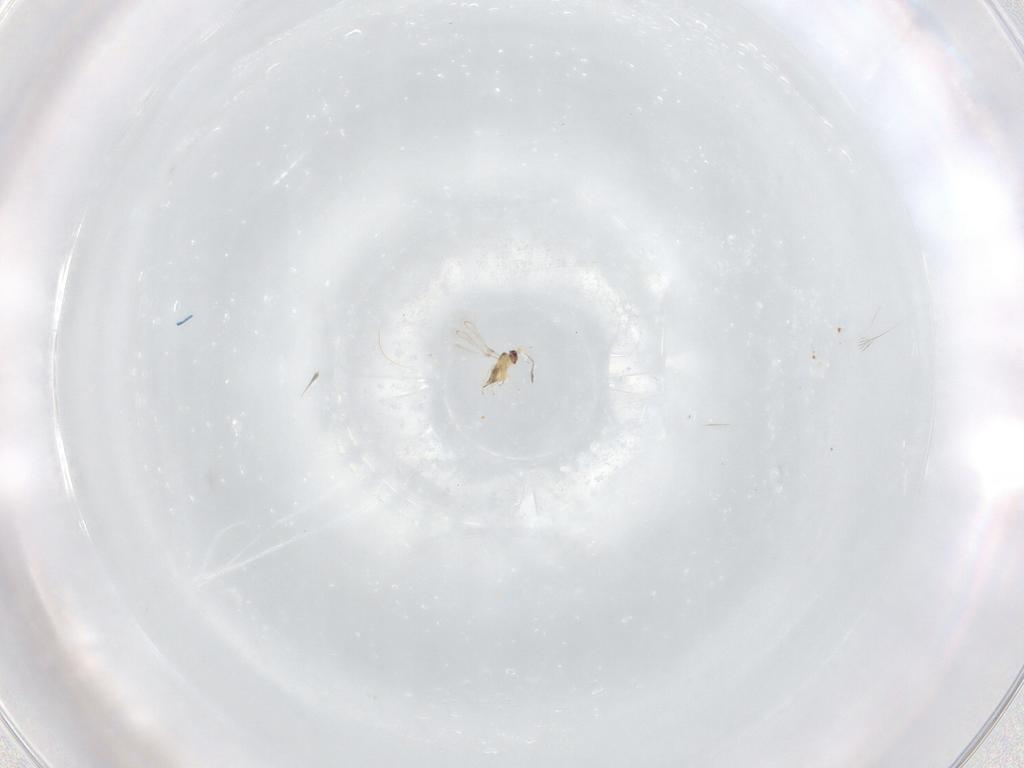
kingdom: Animalia
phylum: Arthropoda
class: Insecta
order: Hymenoptera
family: Mymaridae
